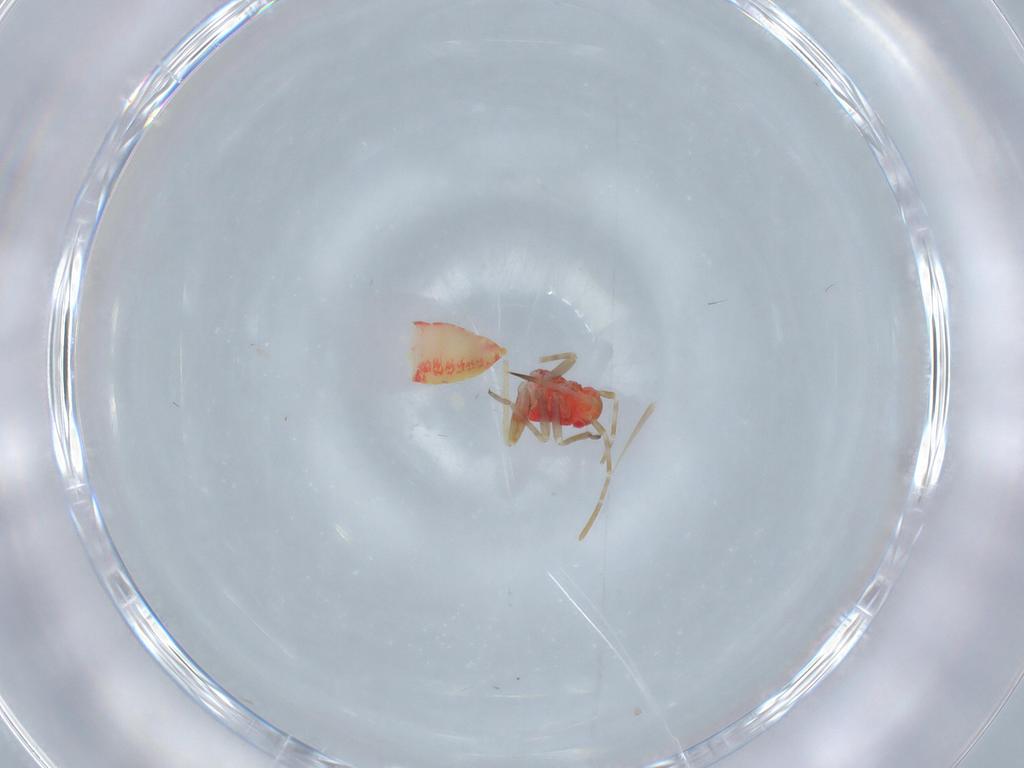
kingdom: Animalia
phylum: Arthropoda
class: Insecta
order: Hemiptera
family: Miridae
